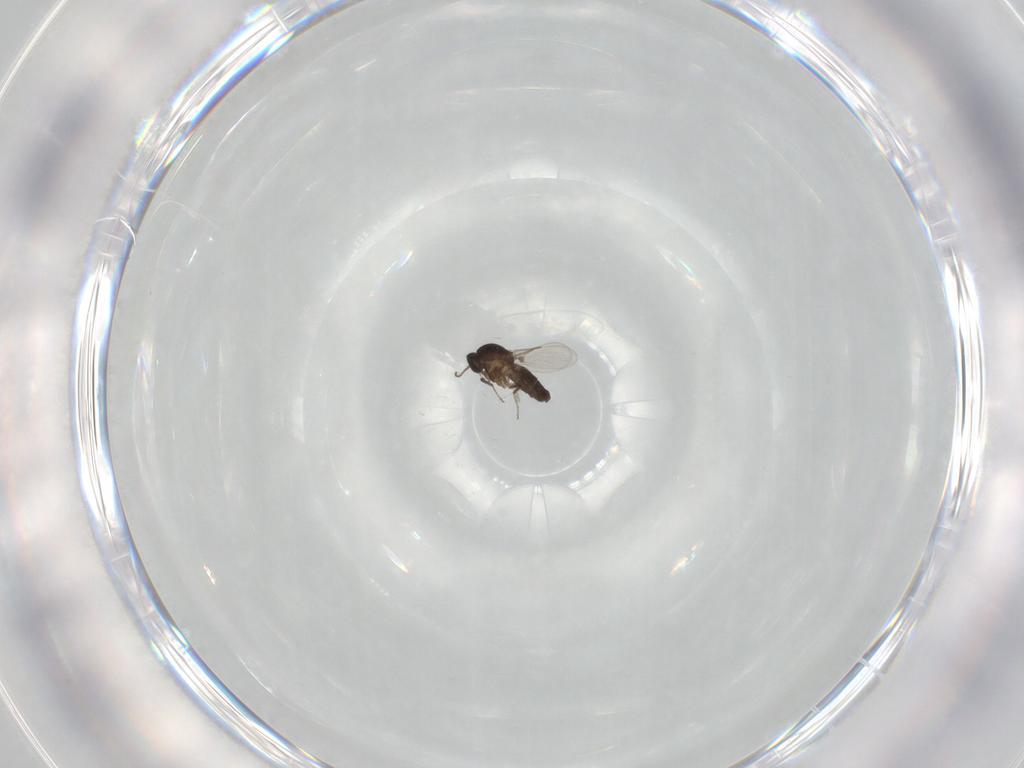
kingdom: Animalia
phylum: Arthropoda
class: Insecta
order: Diptera
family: Ceratopogonidae
